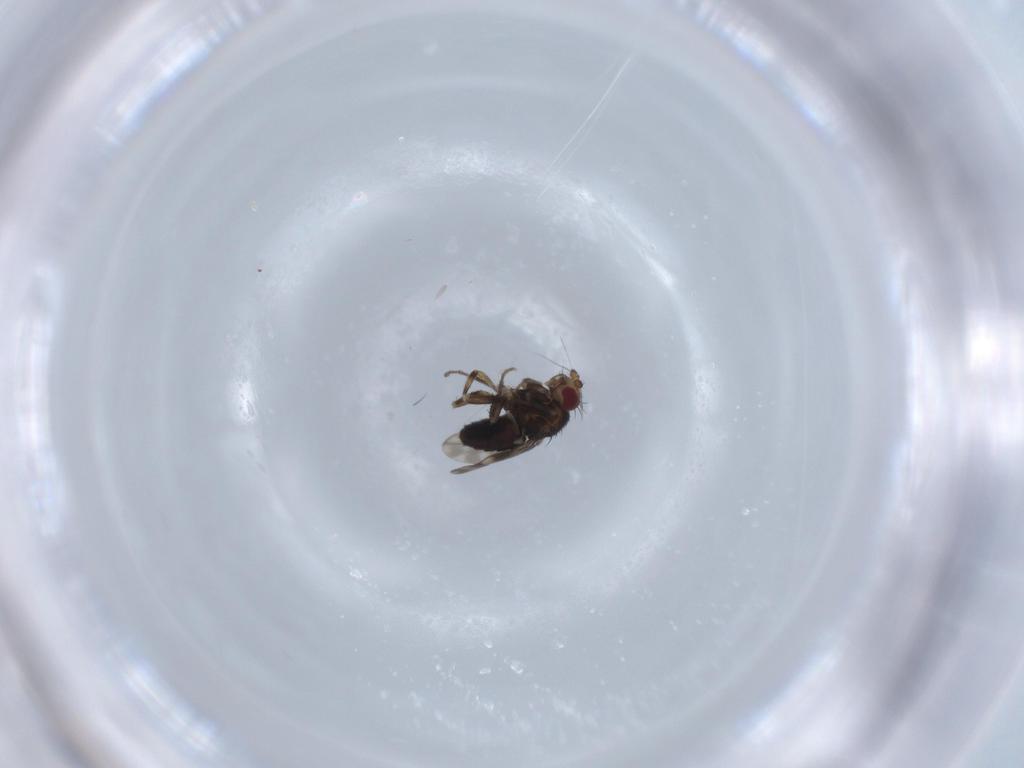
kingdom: Animalia
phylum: Arthropoda
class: Insecta
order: Diptera
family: Sphaeroceridae
